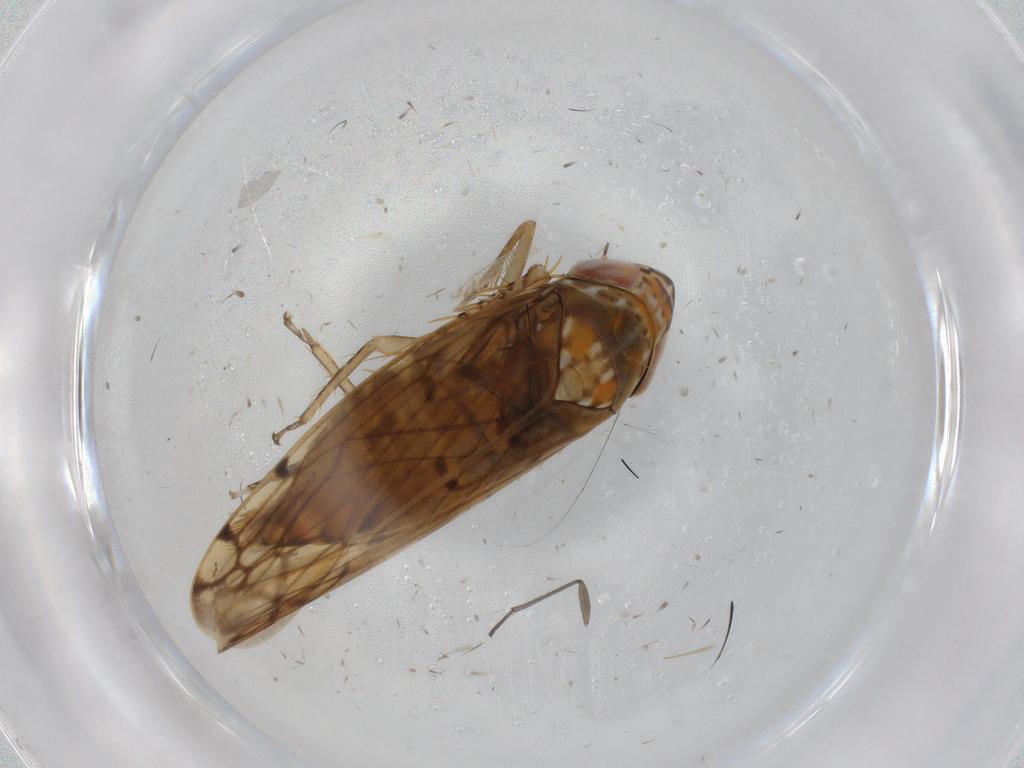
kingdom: Animalia
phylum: Arthropoda
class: Insecta
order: Hemiptera
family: Cicadellidae
